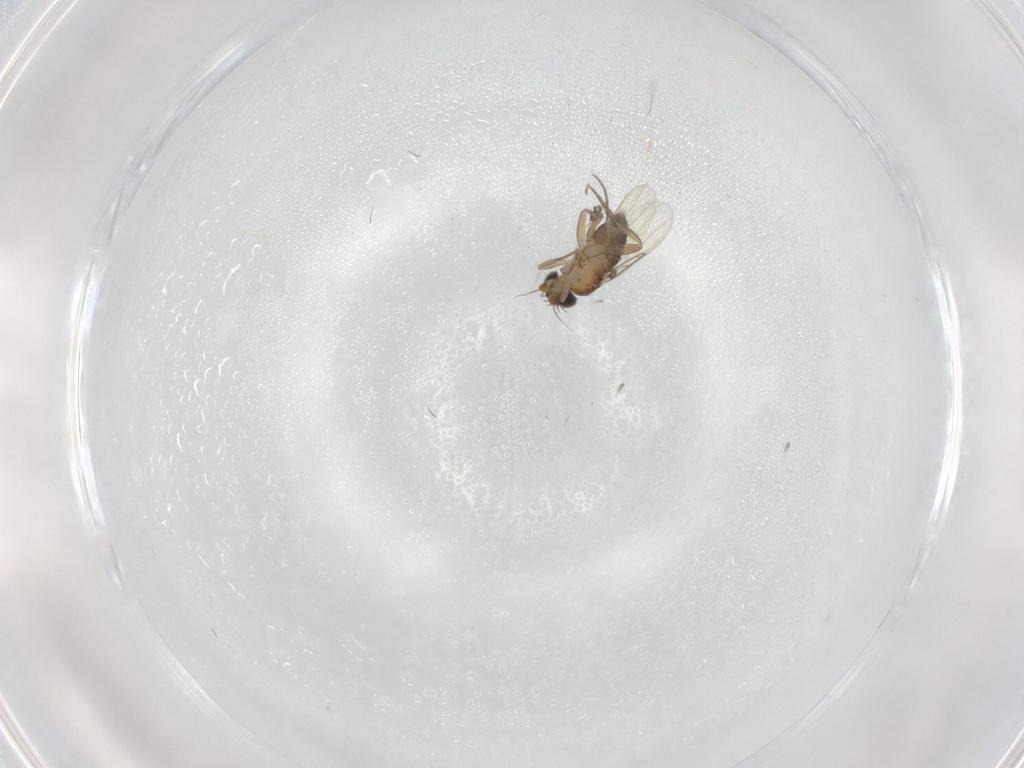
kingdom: Animalia
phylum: Arthropoda
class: Insecta
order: Diptera
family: Phoridae
